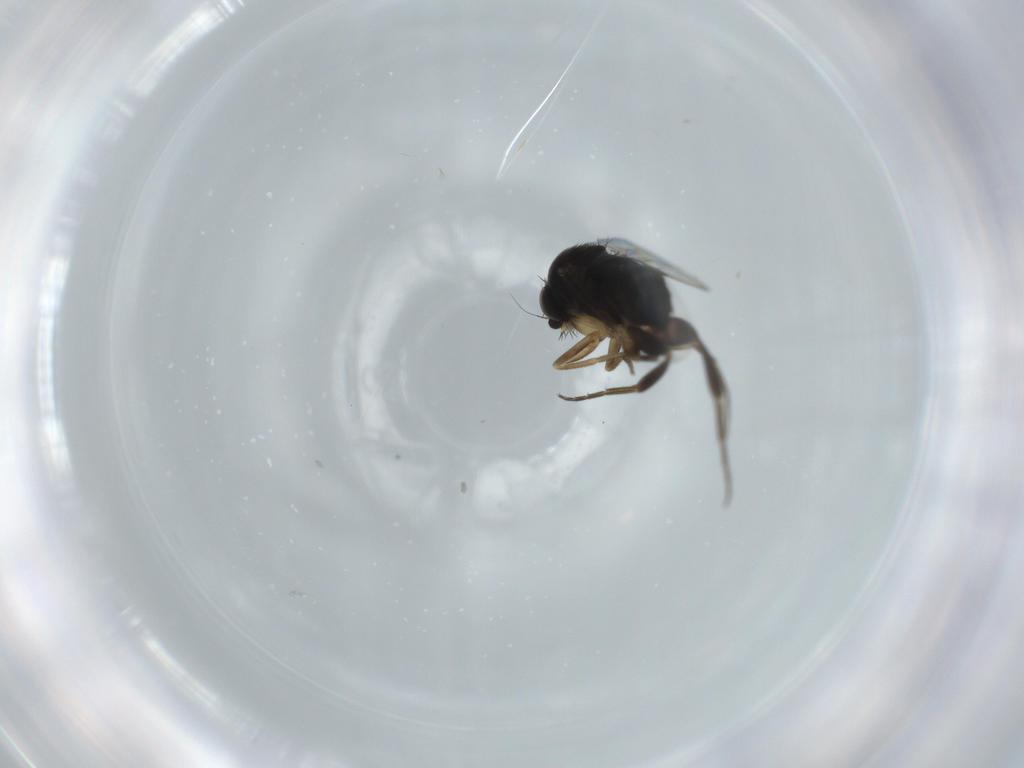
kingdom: Animalia
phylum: Arthropoda
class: Insecta
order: Diptera
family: Phoridae
